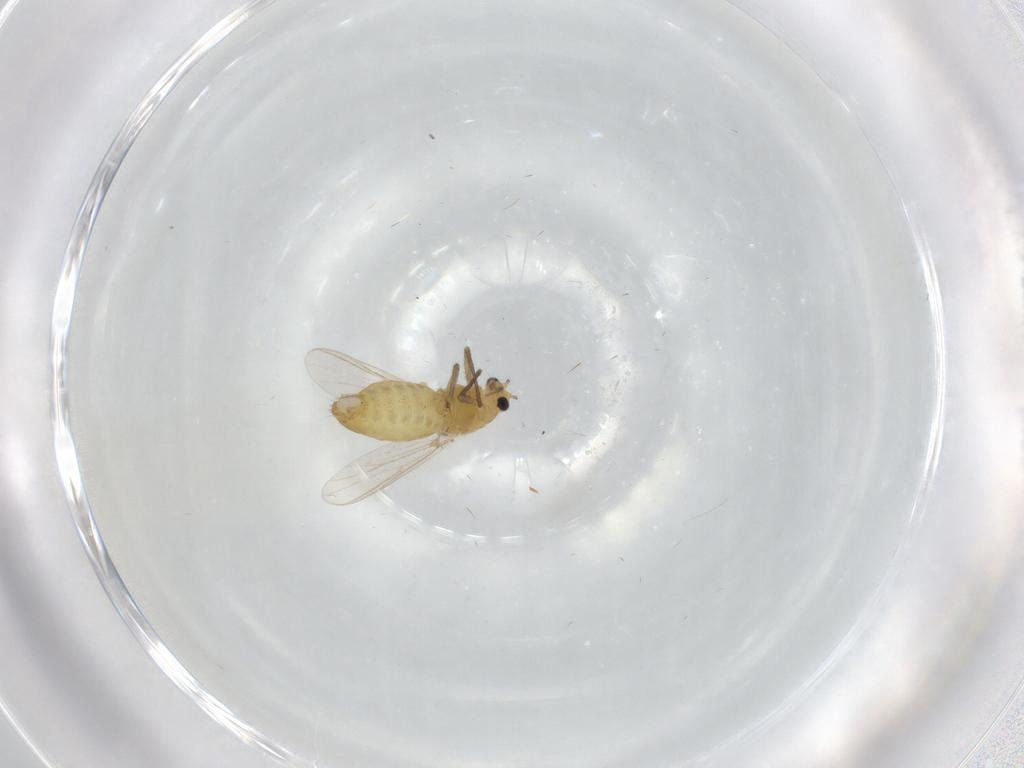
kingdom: Animalia
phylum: Arthropoda
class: Insecta
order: Diptera
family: Chironomidae
